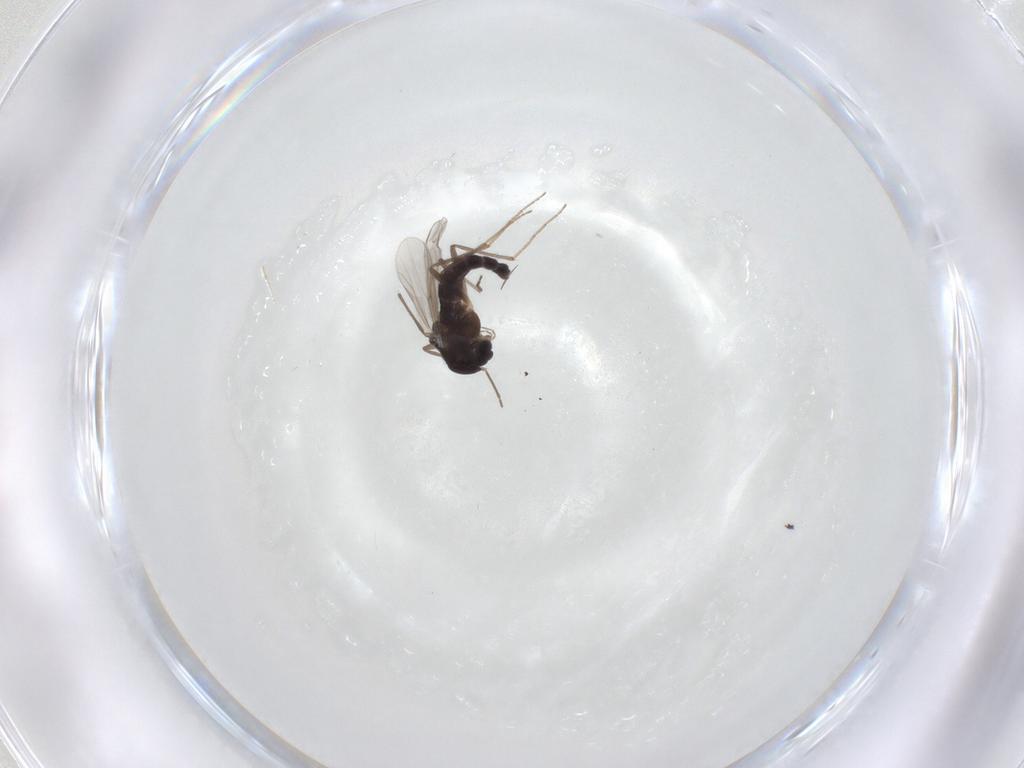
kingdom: Animalia
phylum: Arthropoda
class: Insecta
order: Diptera
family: Chironomidae
